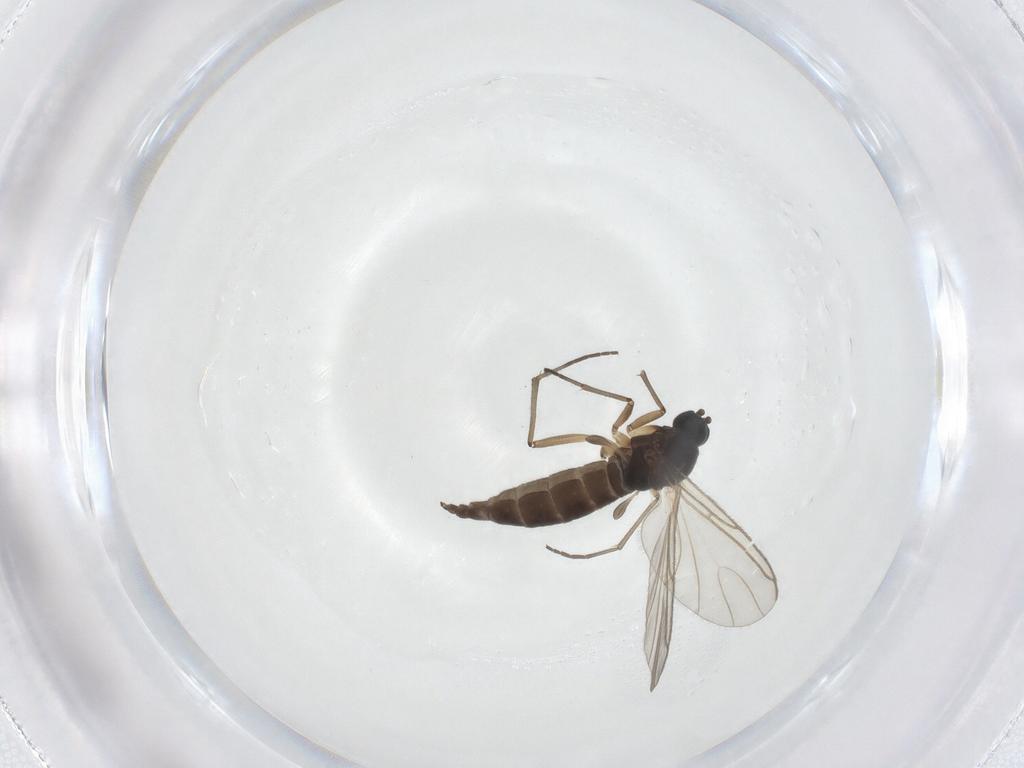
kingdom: Animalia
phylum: Arthropoda
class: Insecta
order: Diptera
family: Sciaridae
